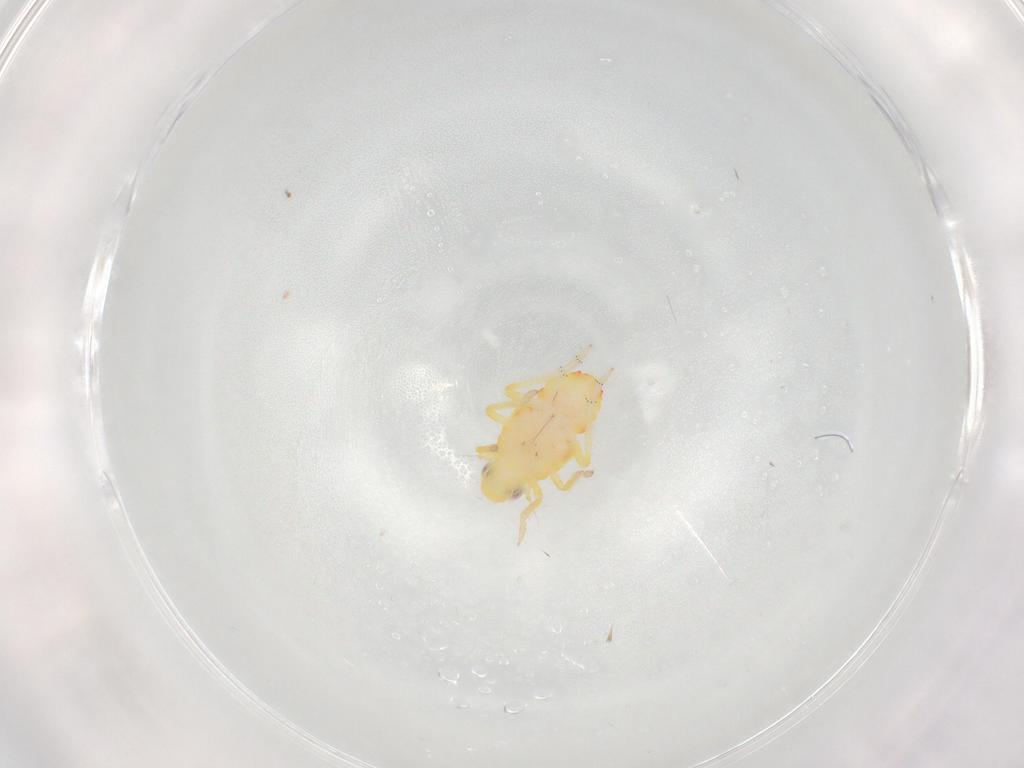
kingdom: Animalia
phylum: Arthropoda
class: Insecta
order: Hemiptera
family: Tropiduchidae
